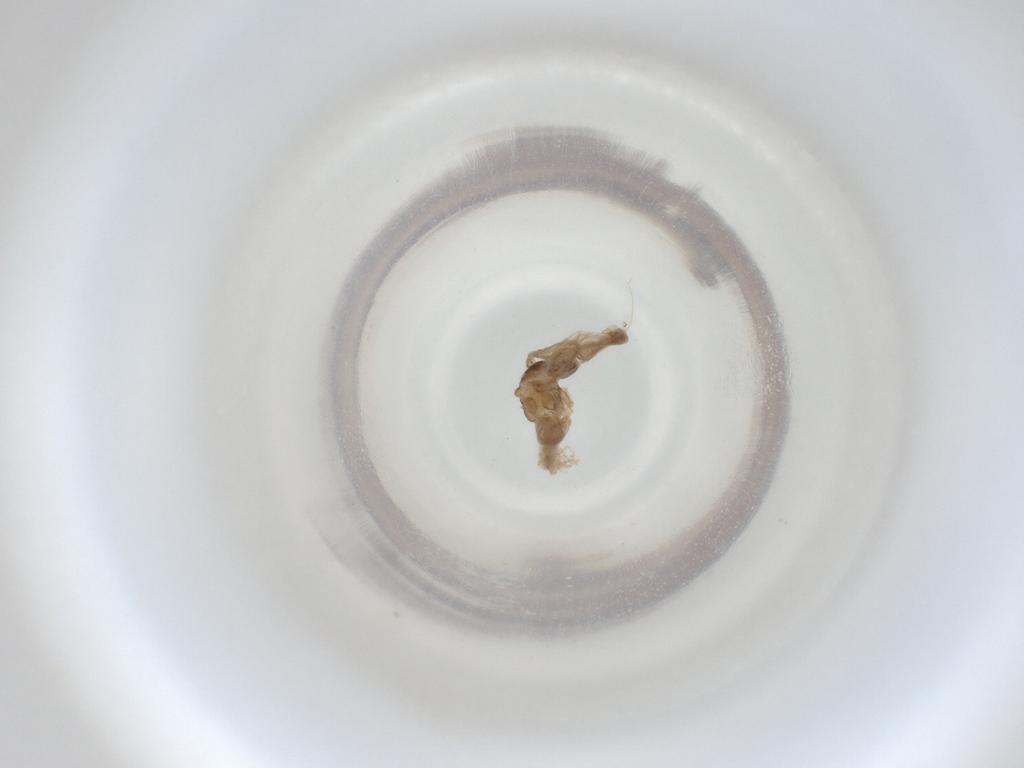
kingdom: Animalia
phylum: Arthropoda
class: Insecta
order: Diptera
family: Cecidomyiidae
